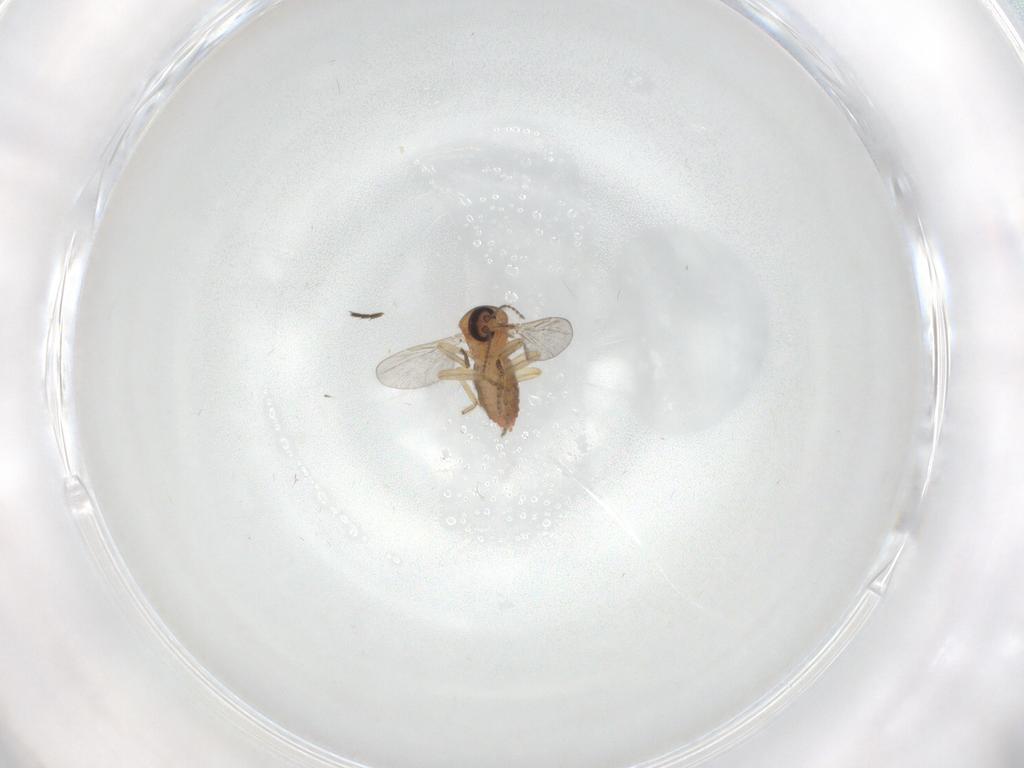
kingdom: Animalia
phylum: Arthropoda
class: Insecta
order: Diptera
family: Ceratopogonidae
